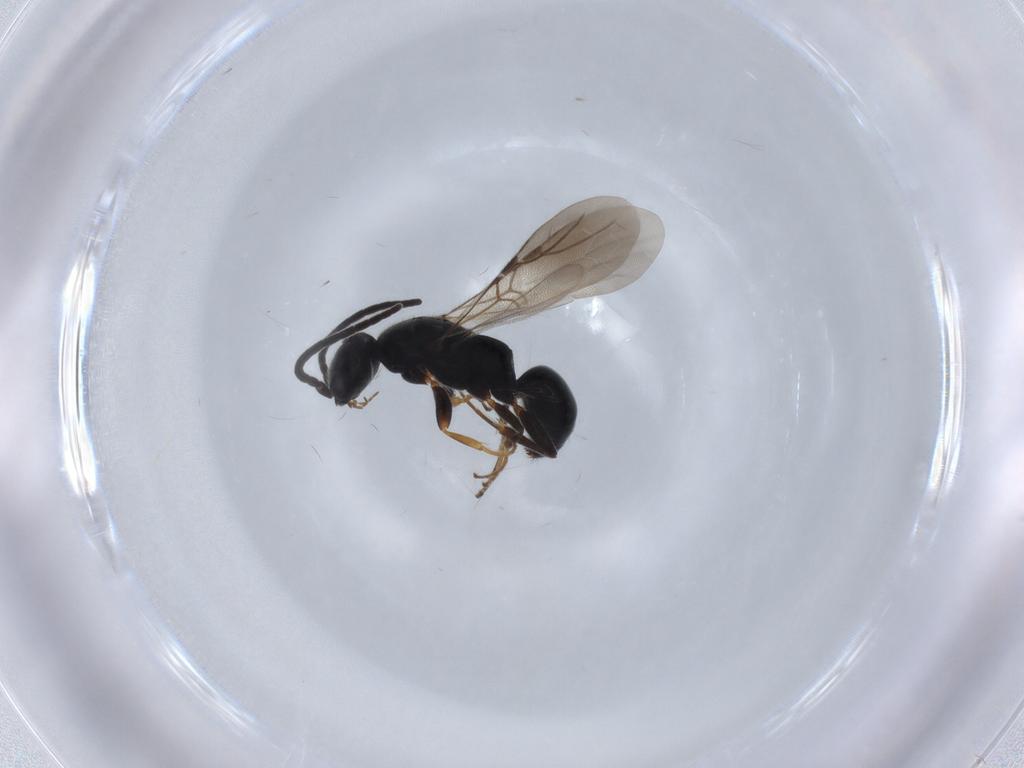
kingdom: Animalia
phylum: Arthropoda
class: Insecta
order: Hymenoptera
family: Bethylidae
